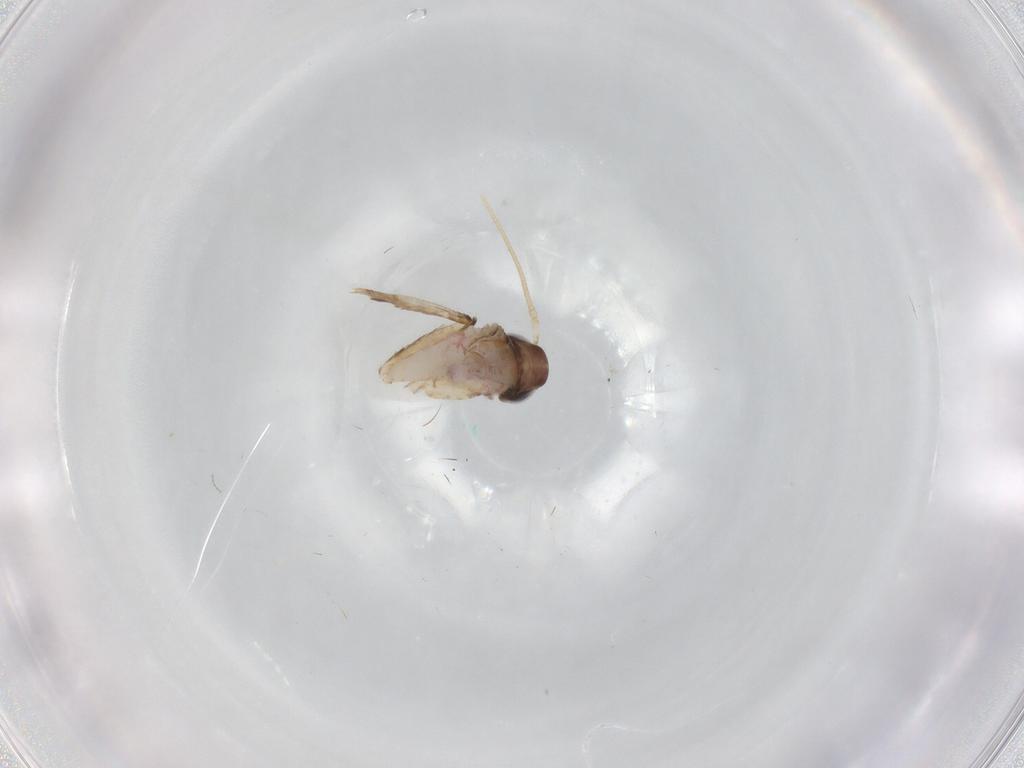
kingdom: Animalia
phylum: Arthropoda
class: Insecta
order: Lepidoptera
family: Gelechiidae
